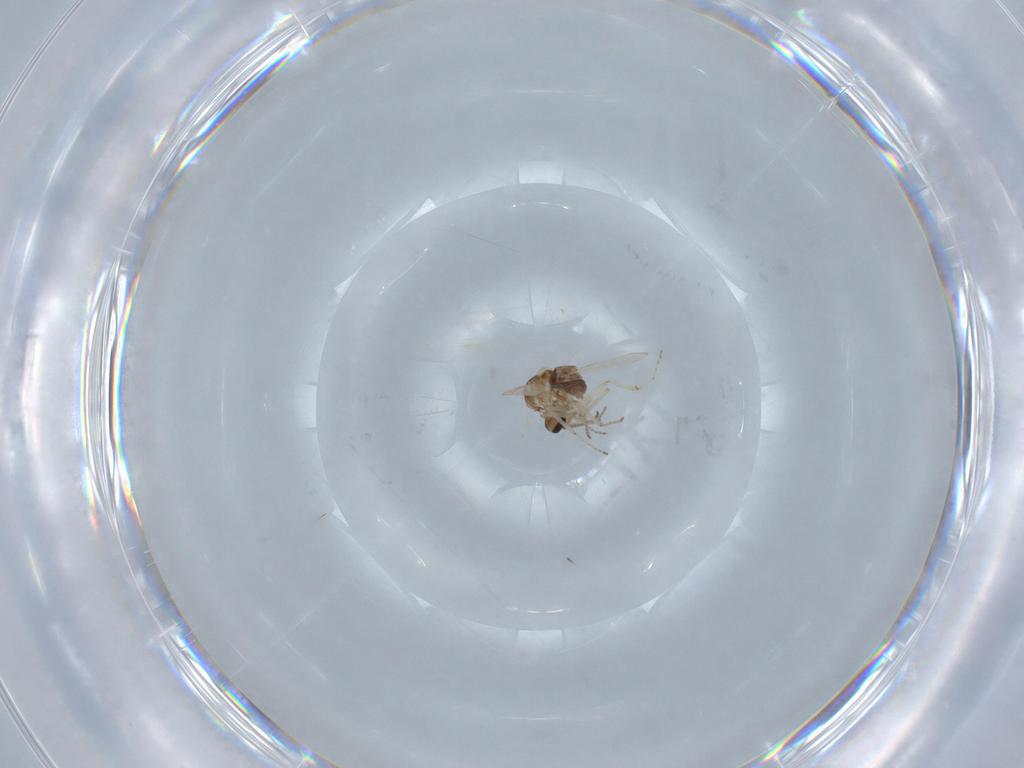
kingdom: Animalia
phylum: Arthropoda
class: Insecta
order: Diptera
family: Ceratopogonidae
